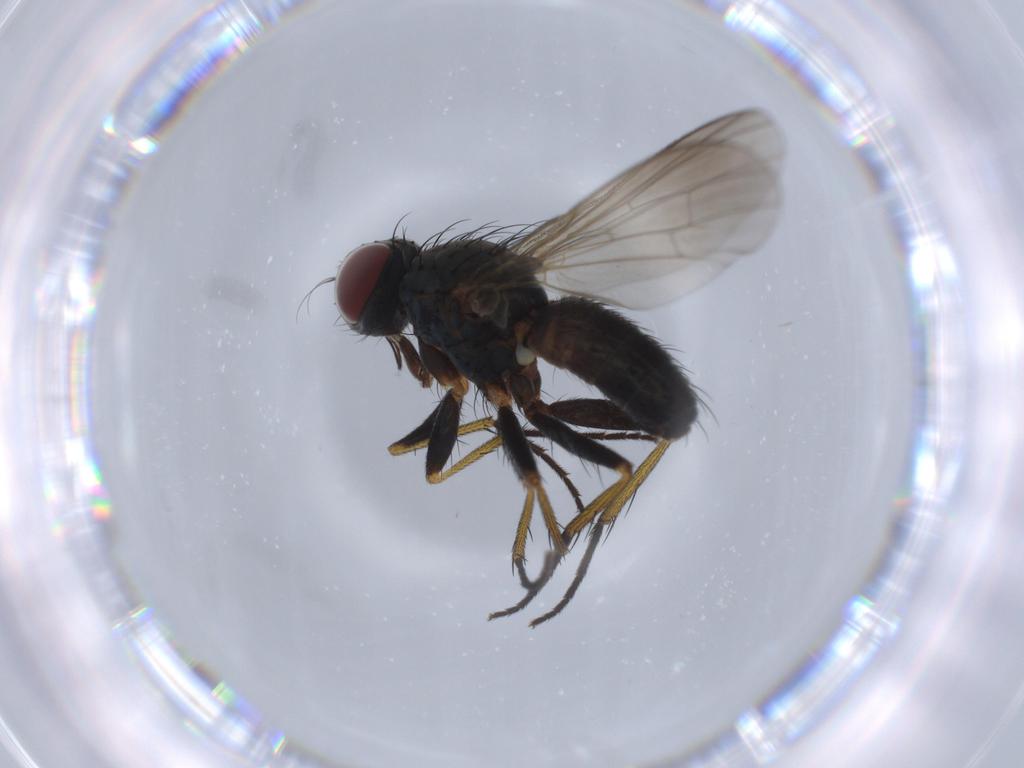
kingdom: Animalia
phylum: Arthropoda
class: Insecta
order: Diptera
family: Muscidae
